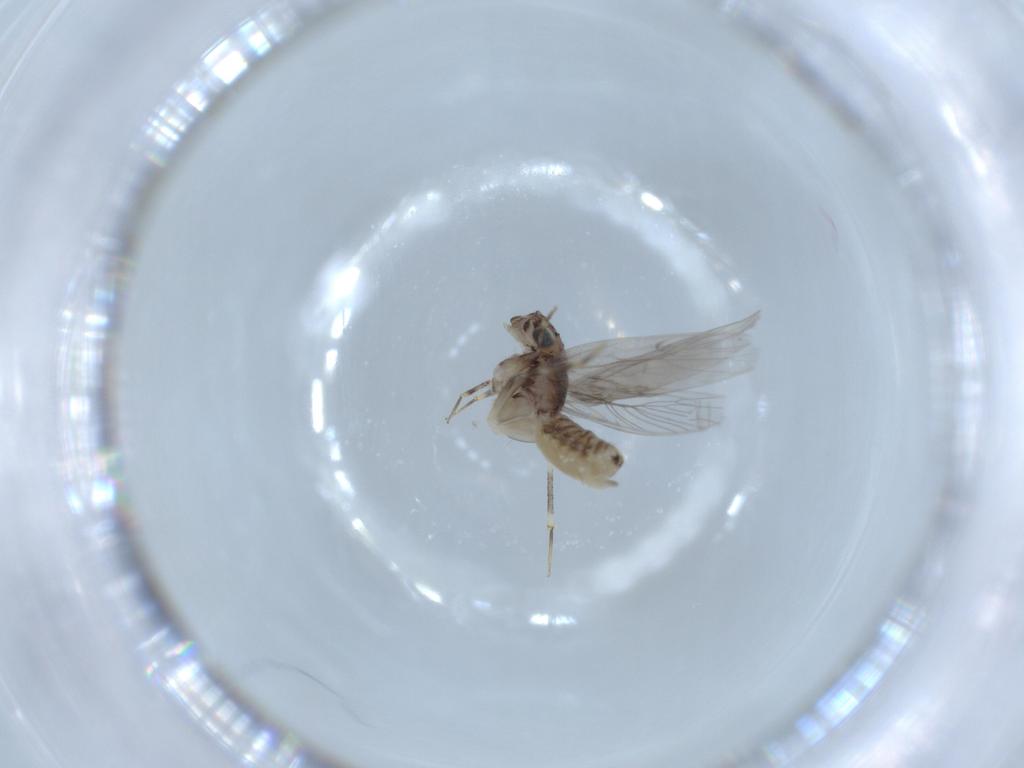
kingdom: Animalia
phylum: Arthropoda
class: Insecta
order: Psocodea
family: Lepidopsocidae
